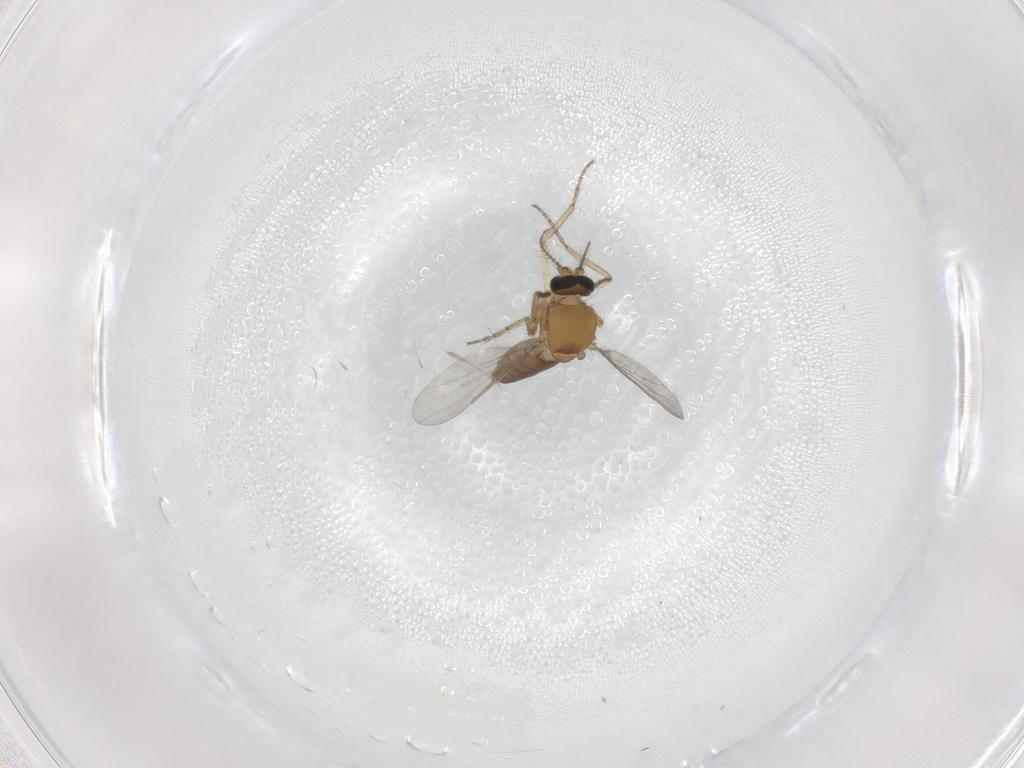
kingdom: Animalia
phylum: Arthropoda
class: Insecta
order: Diptera
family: Ceratopogonidae
